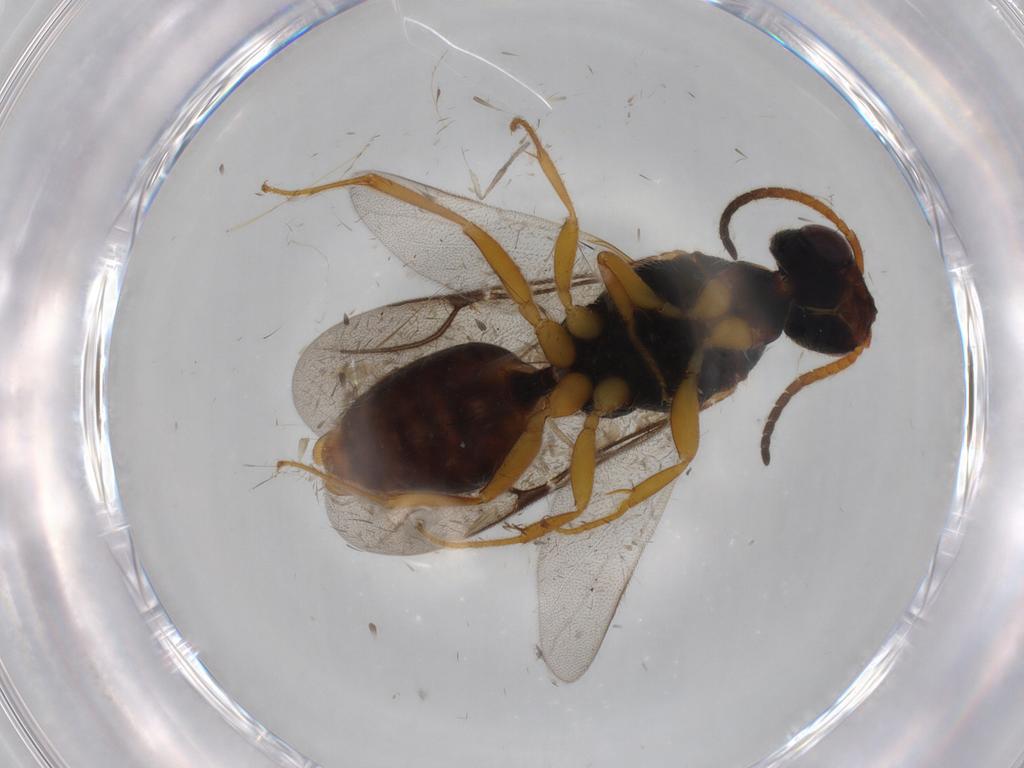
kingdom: Animalia
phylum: Arthropoda
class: Insecta
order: Hymenoptera
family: Bethylidae
